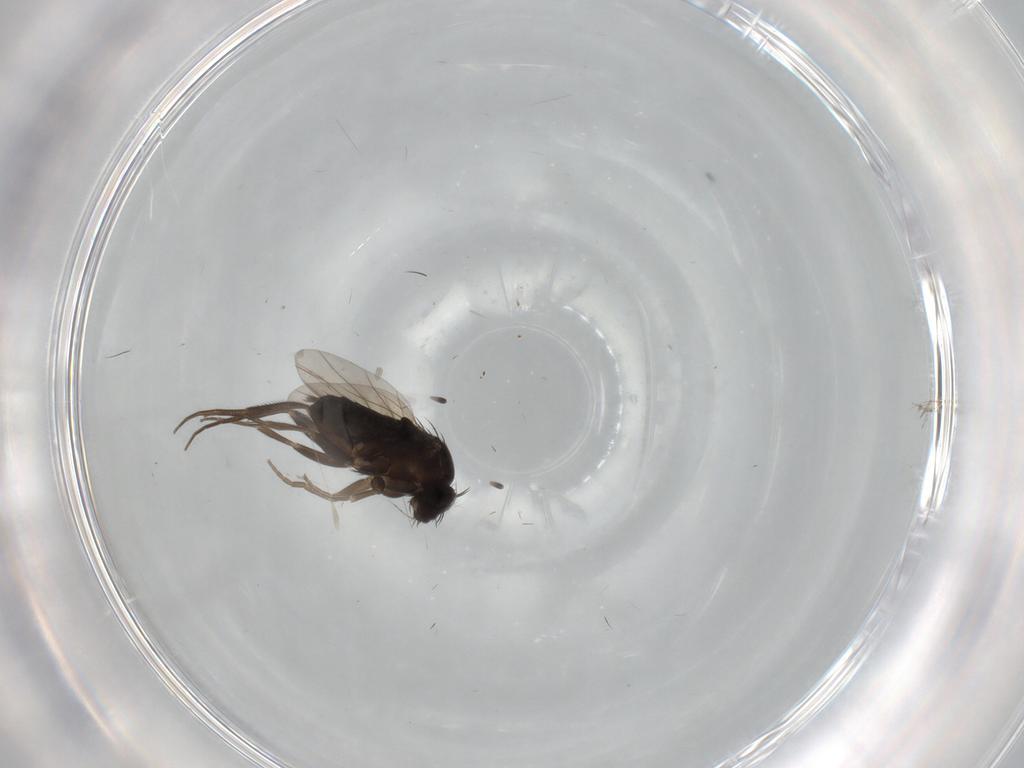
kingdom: Animalia
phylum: Arthropoda
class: Insecta
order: Diptera
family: Phoridae
